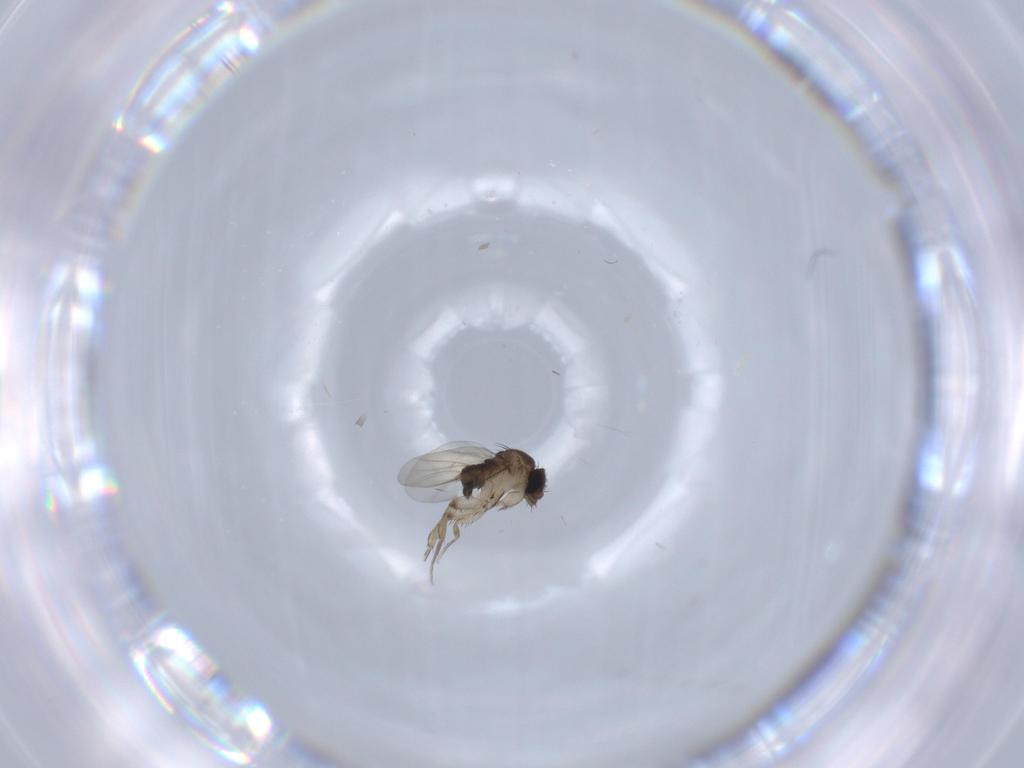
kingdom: Animalia
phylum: Arthropoda
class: Insecta
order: Diptera
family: Phoridae
